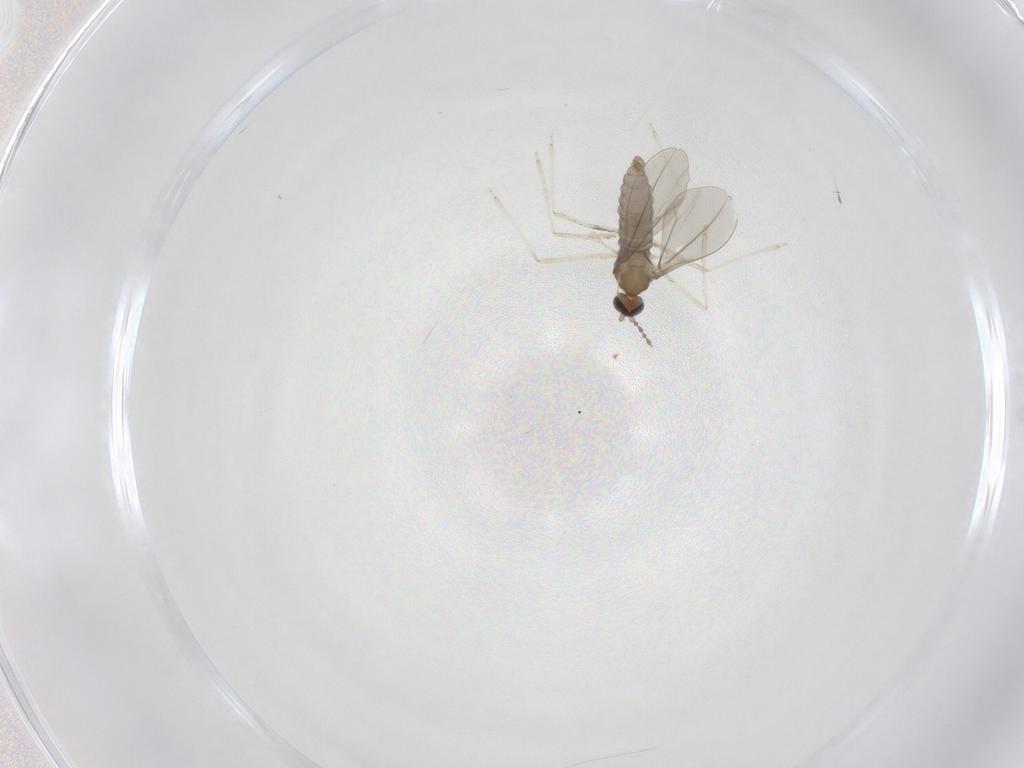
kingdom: Animalia
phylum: Arthropoda
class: Insecta
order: Diptera
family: Cecidomyiidae
